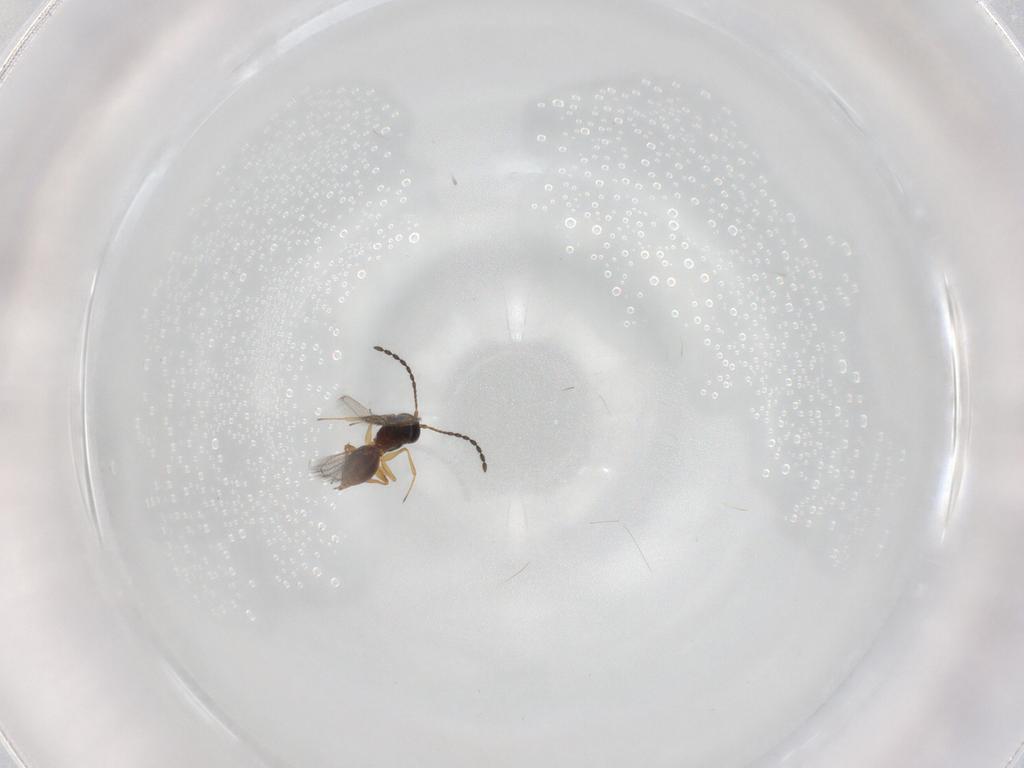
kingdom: Animalia
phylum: Arthropoda
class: Insecta
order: Hymenoptera
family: Figitidae
